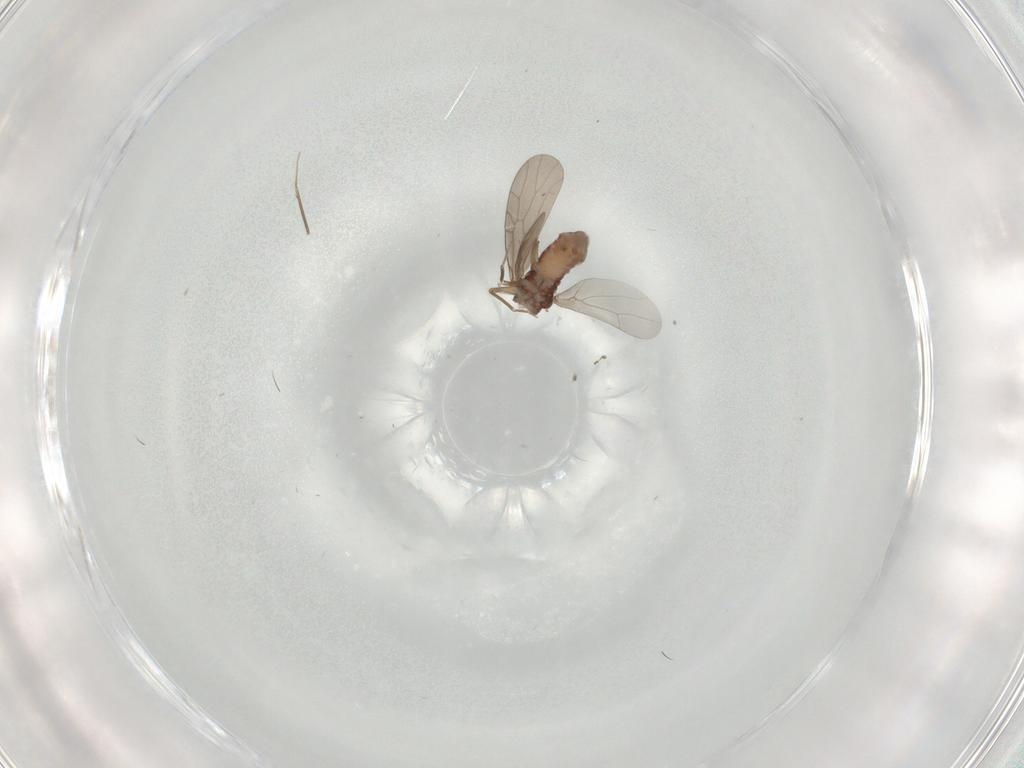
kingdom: Animalia
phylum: Arthropoda
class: Insecta
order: Psocodea
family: Lepidopsocidae
